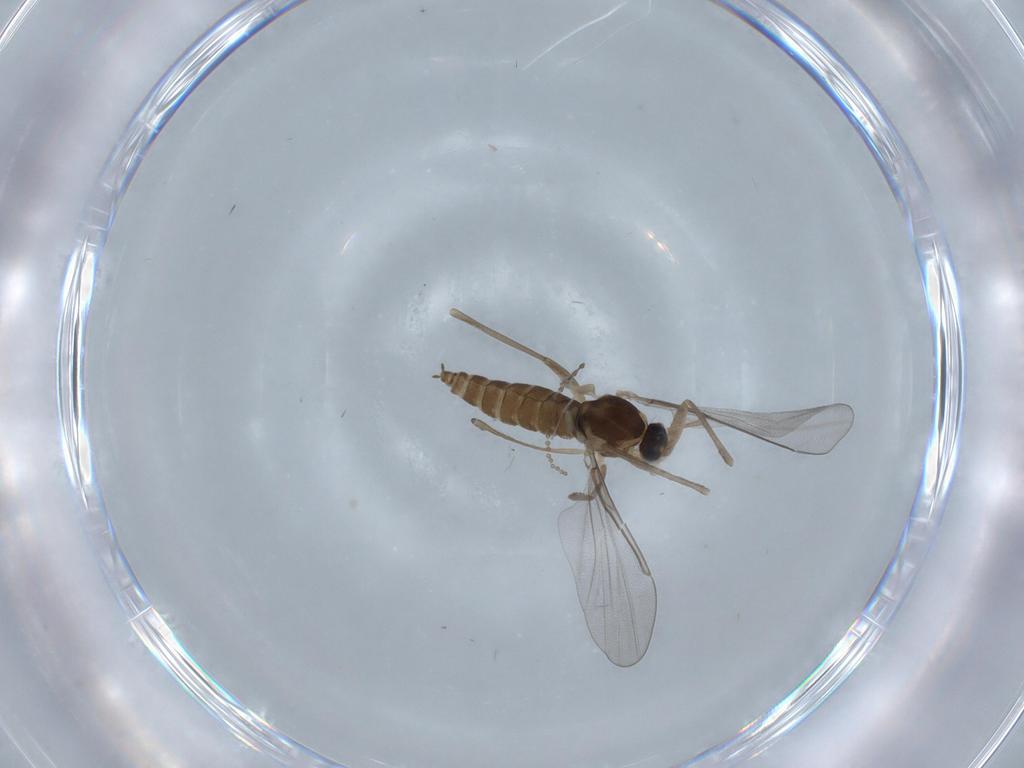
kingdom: Animalia
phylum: Arthropoda
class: Insecta
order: Diptera
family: Cecidomyiidae
